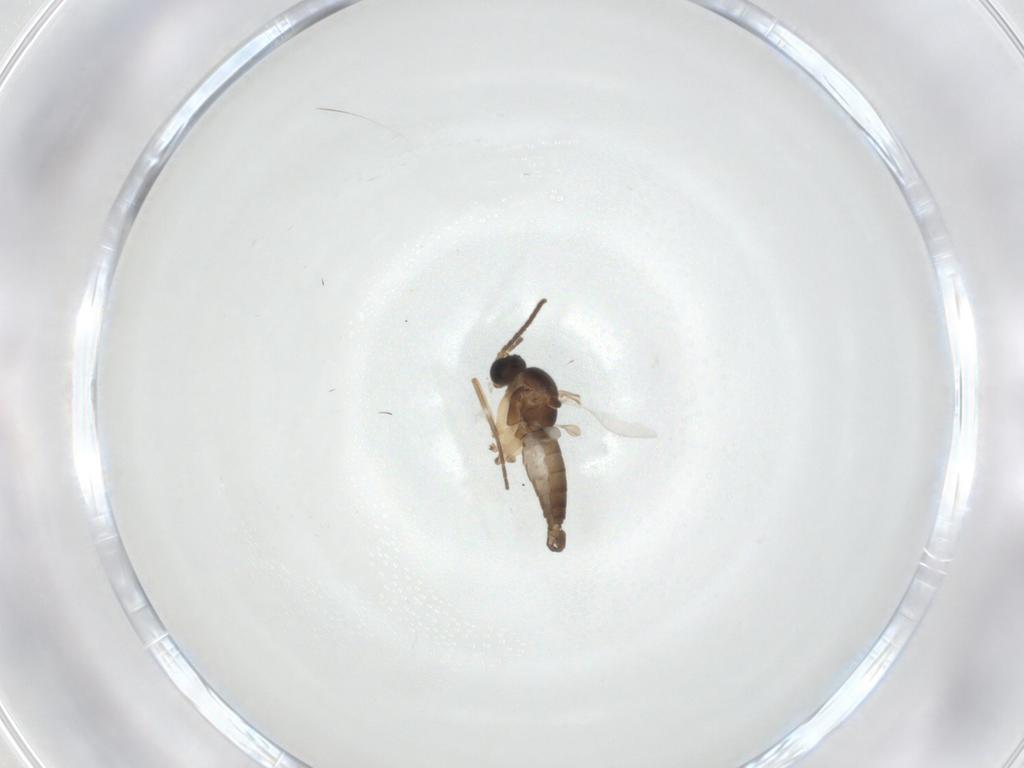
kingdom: Animalia
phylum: Arthropoda
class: Insecta
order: Diptera
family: Sciaridae
